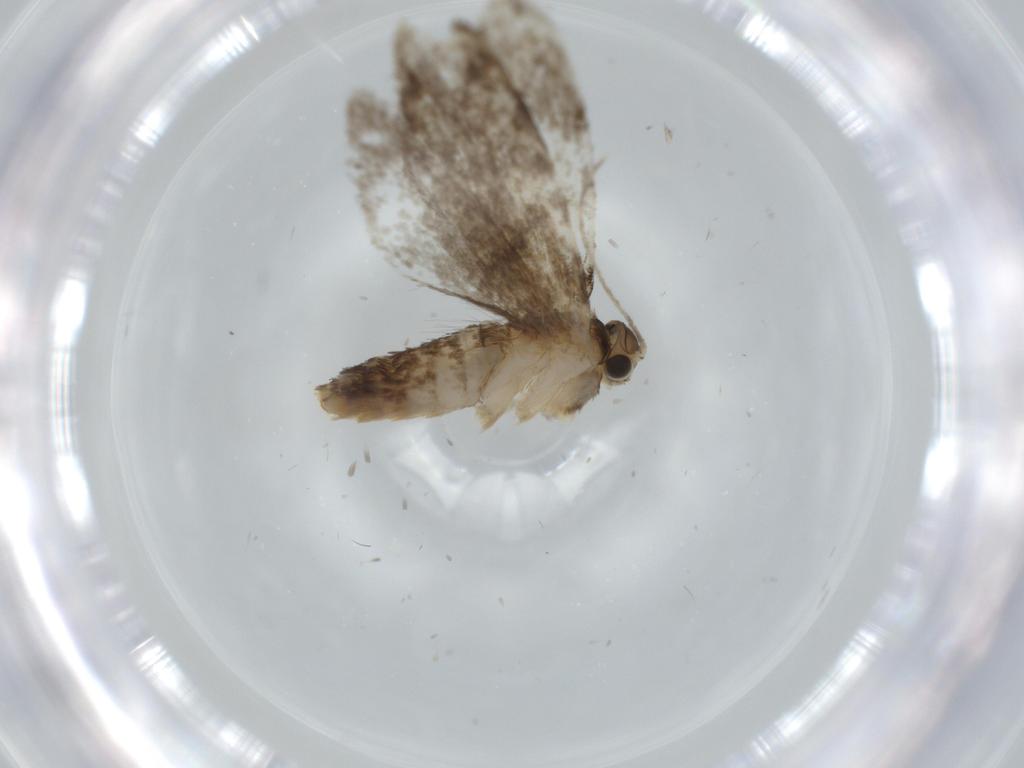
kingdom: Animalia
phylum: Arthropoda
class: Insecta
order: Lepidoptera
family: Tineidae
